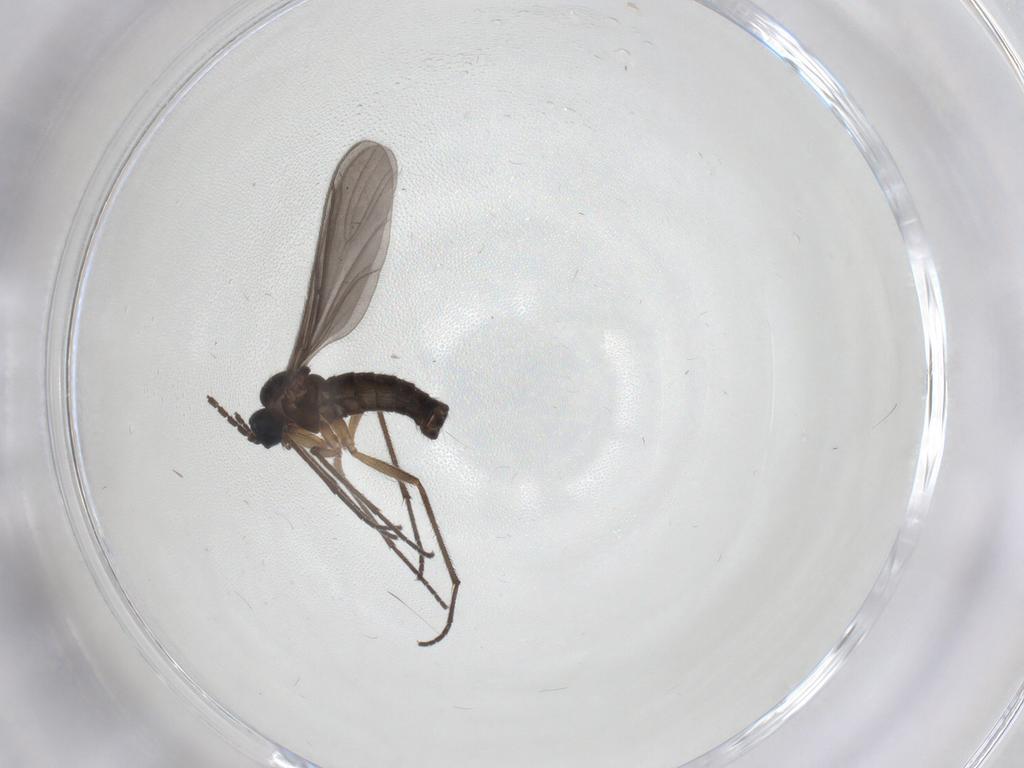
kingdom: Animalia
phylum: Arthropoda
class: Insecta
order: Diptera
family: Sciaridae
